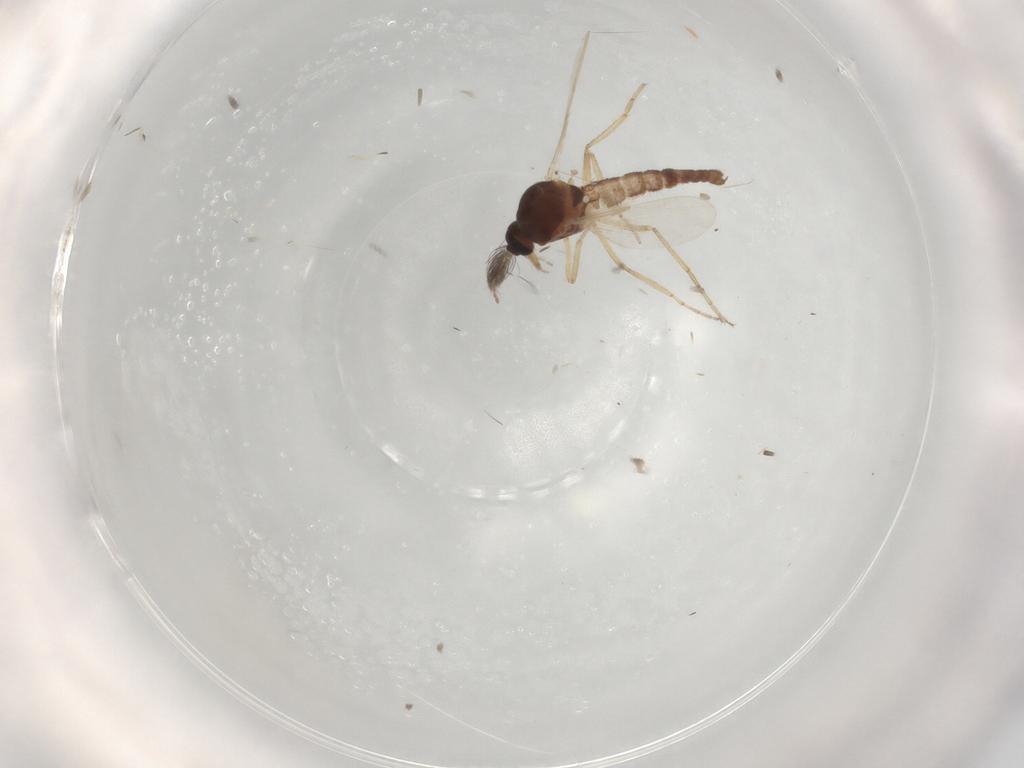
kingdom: Animalia
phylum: Arthropoda
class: Insecta
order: Diptera
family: Ceratopogonidae
